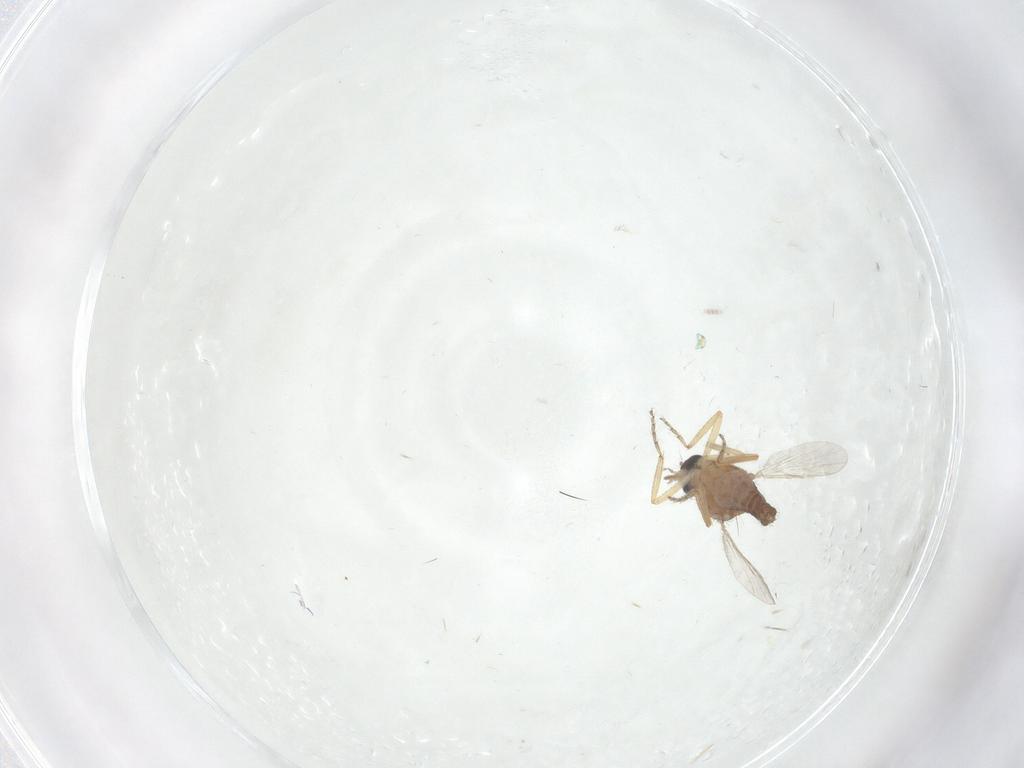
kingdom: Animalia
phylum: Arthropoda
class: Insecta
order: Diptera
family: Ceratopogonidae
